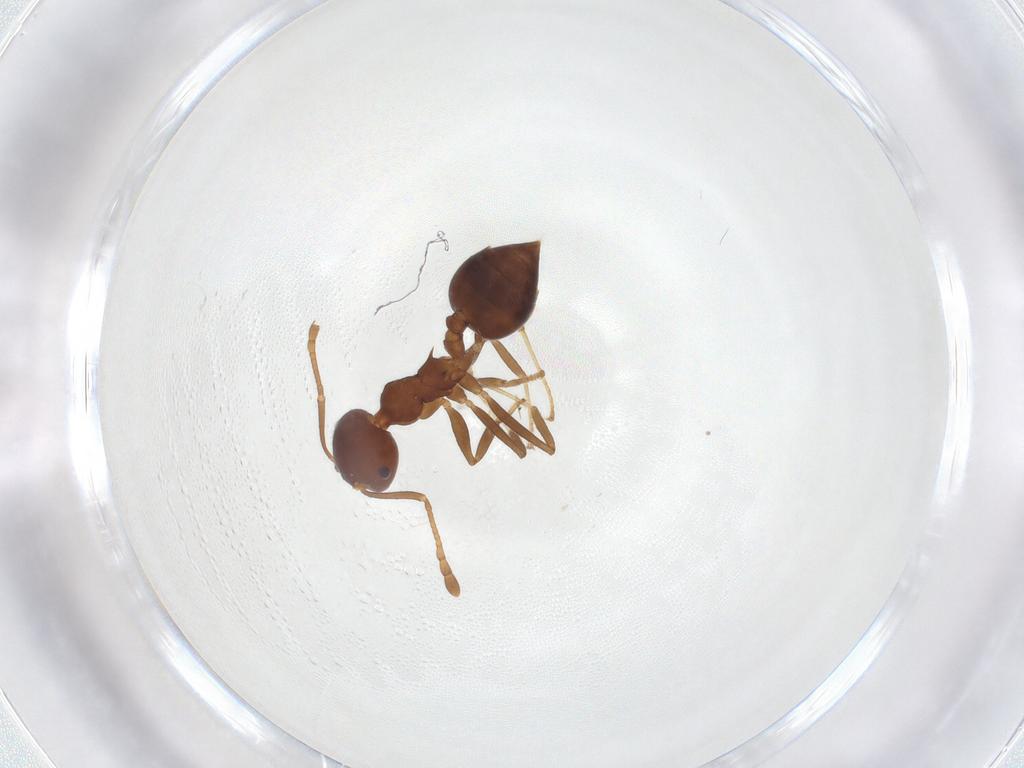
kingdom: Animalia
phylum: Arthropoda
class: Insecta
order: Hymenoptera
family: Formicidae
